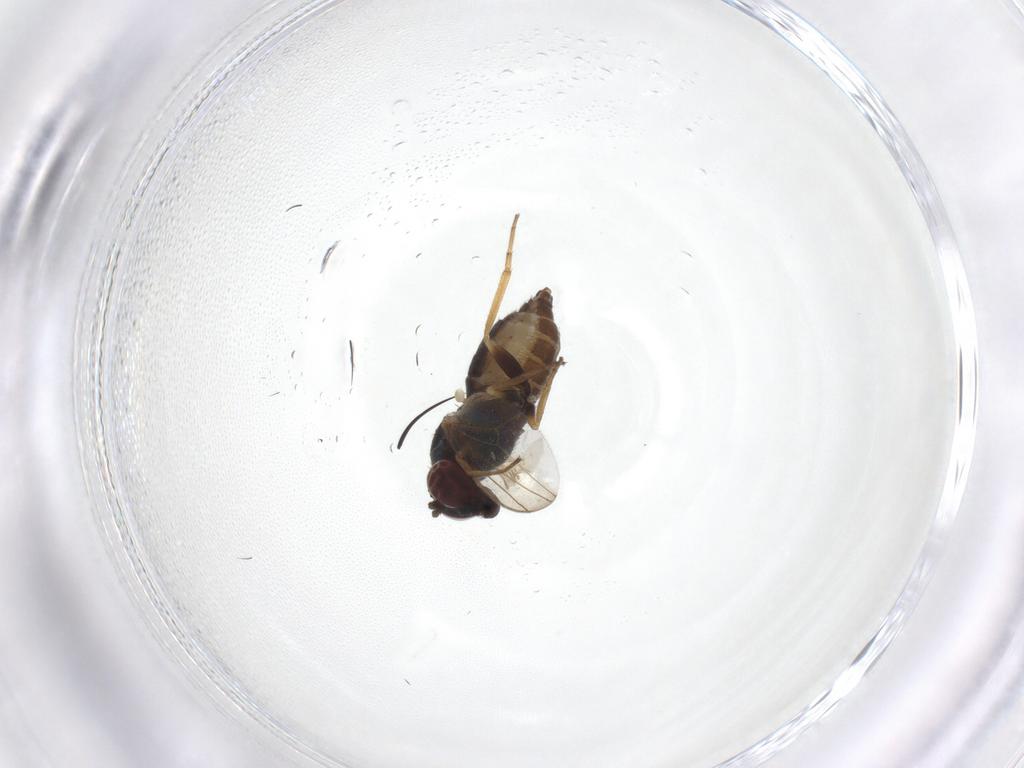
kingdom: Animalia
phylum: Arthropoda
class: Insecta
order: Diptera
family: Dolichopodidae
